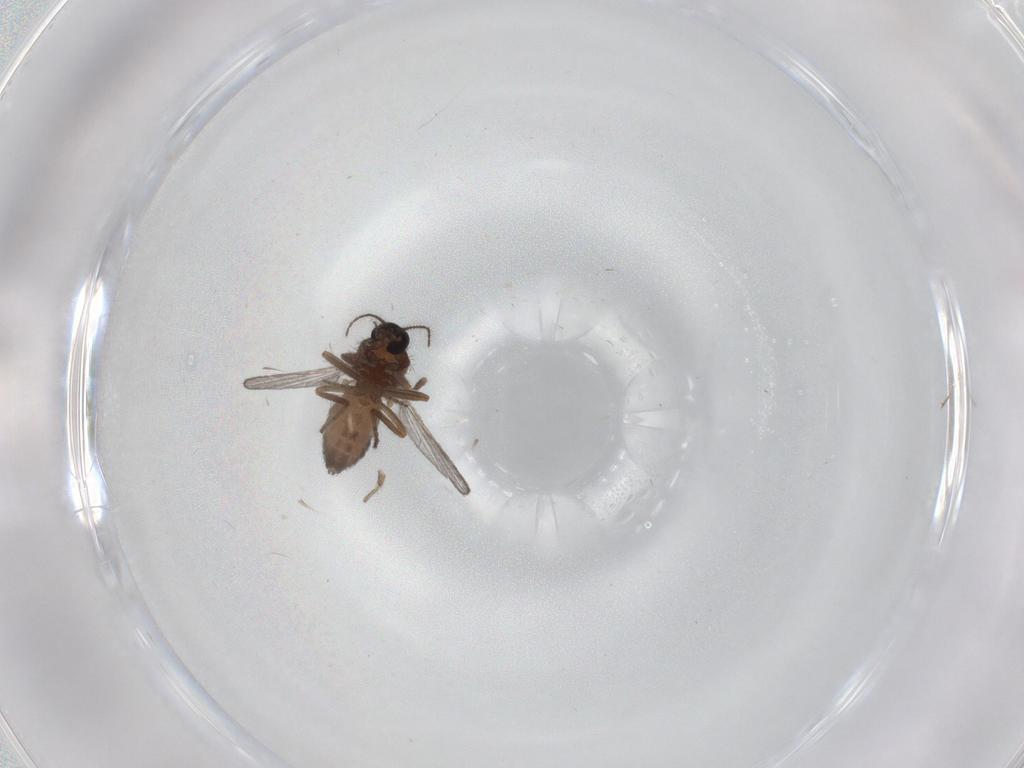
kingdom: Animalia
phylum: Arthropoda
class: Insecta
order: Diptera
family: Ceratopogonidae
